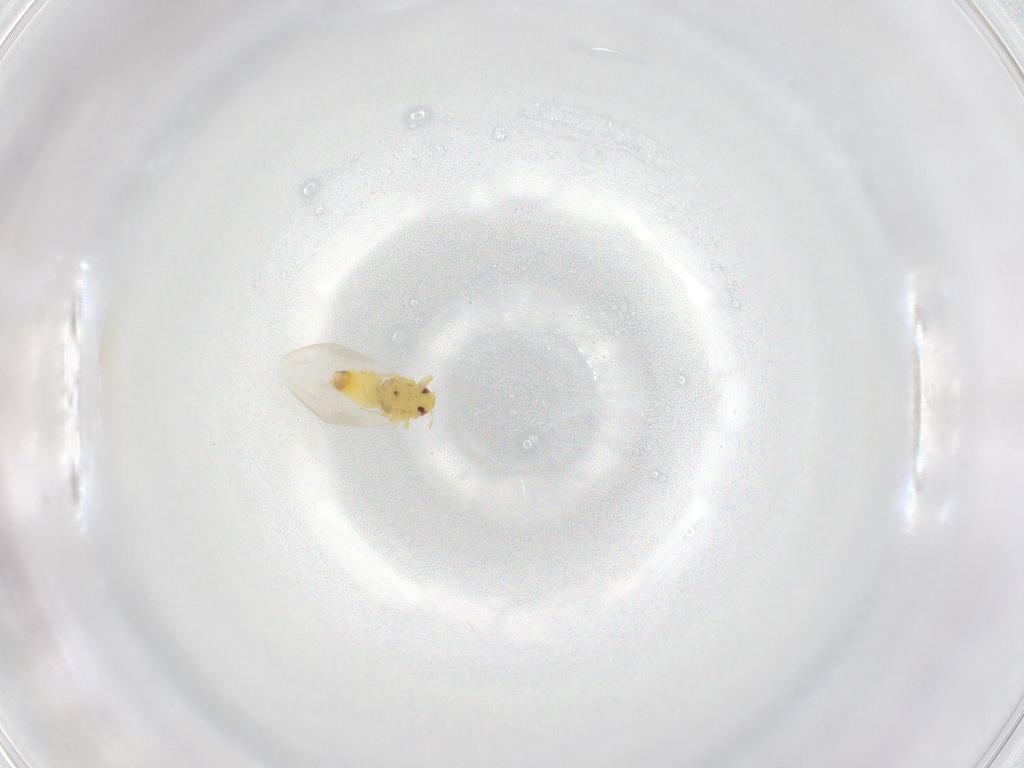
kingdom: Animalia
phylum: Arthropoda
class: Insecta
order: Hemiptera
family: Aleyrodidae
